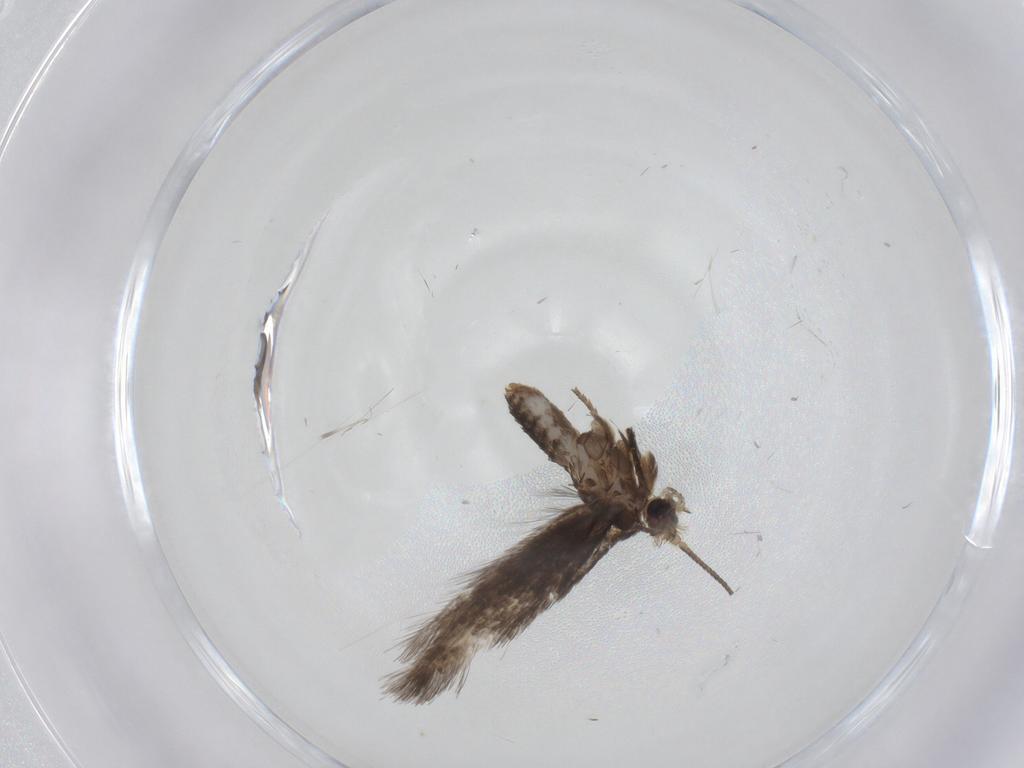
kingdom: Animalia
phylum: Arthropoda
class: Insecta
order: Lepidoptera
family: Nepticulidae
